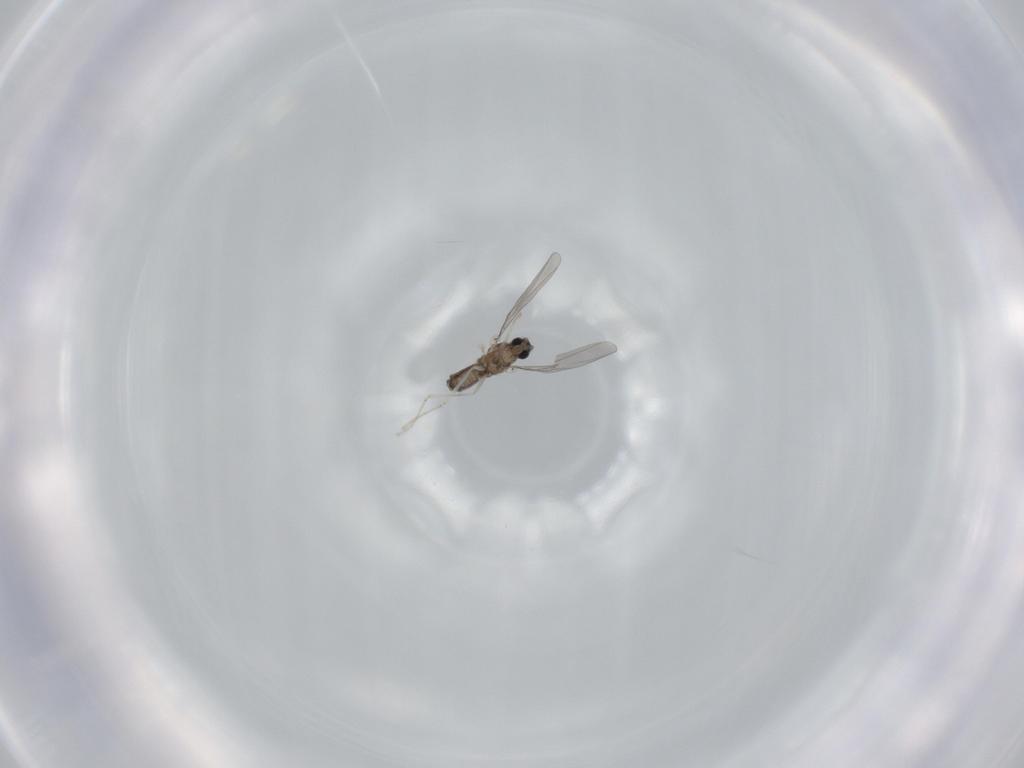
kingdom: Animalia
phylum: Arthropoda
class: Insecta
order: Diptera
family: Cecidomyiidae
